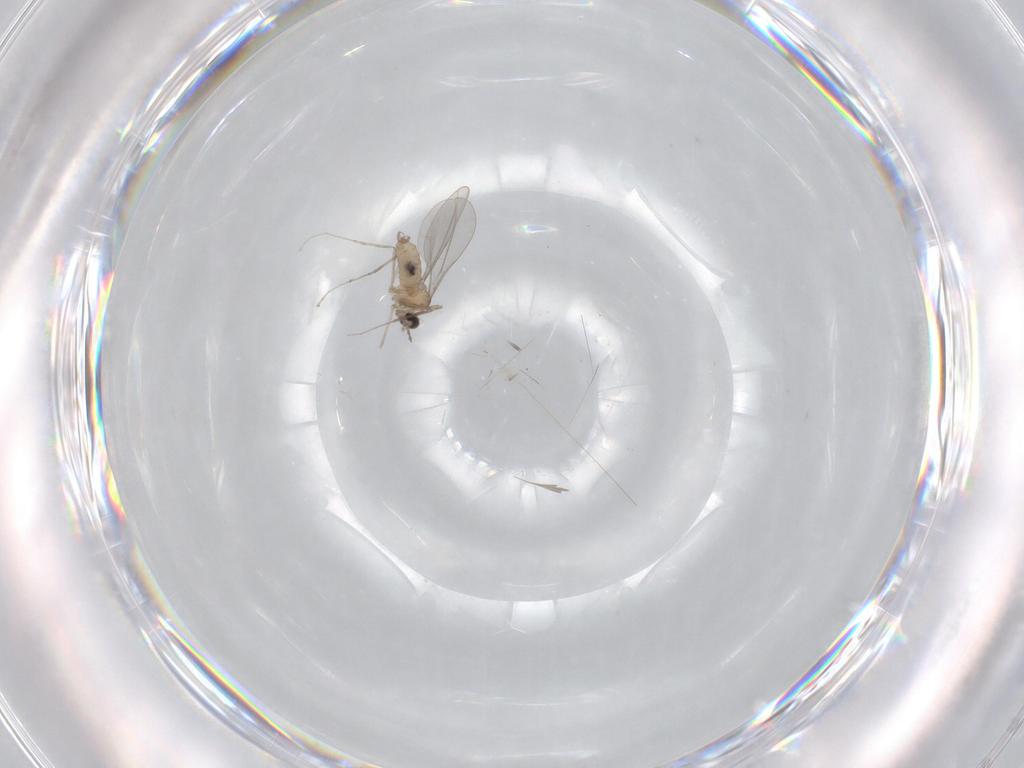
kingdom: Animalia
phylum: Arthropoda
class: Insecta
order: Diptera
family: Cecidomyiidae
